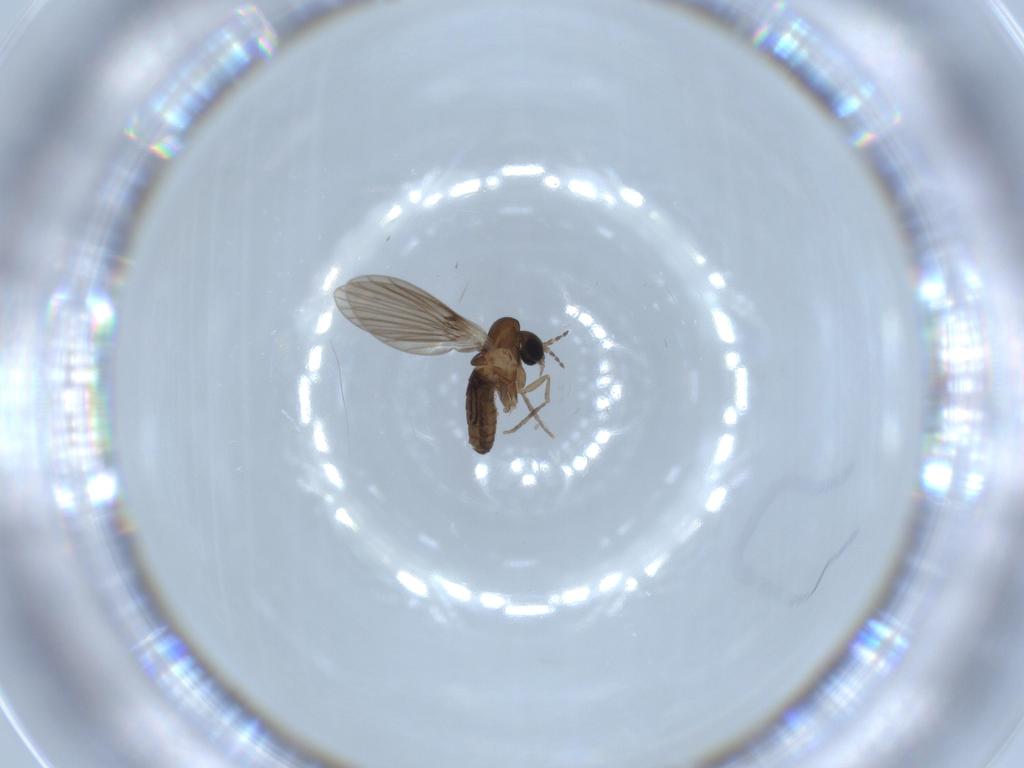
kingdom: Animalia
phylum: Arthropoda
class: Insecta
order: Diptera
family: Psychodidae
